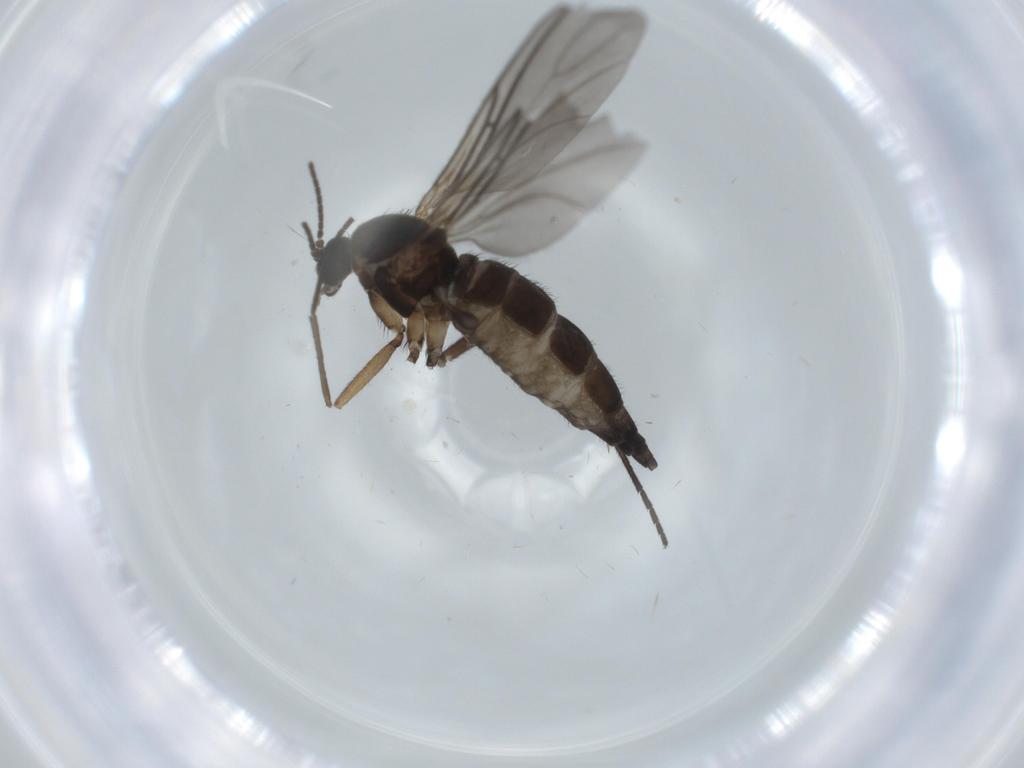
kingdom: Animalia
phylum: Arthropoda
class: Insecta
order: Diptera
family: Sciaridae
